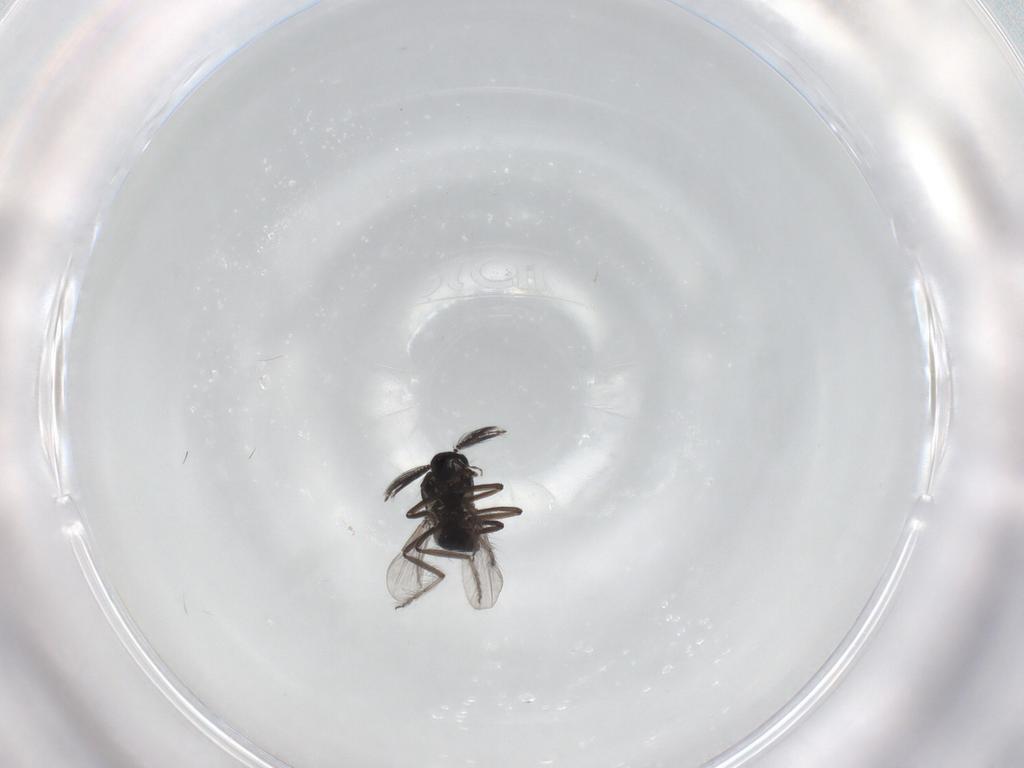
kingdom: Animalia
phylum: Arthropoda
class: Insecta
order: Diptera
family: Ceratopogonidae
